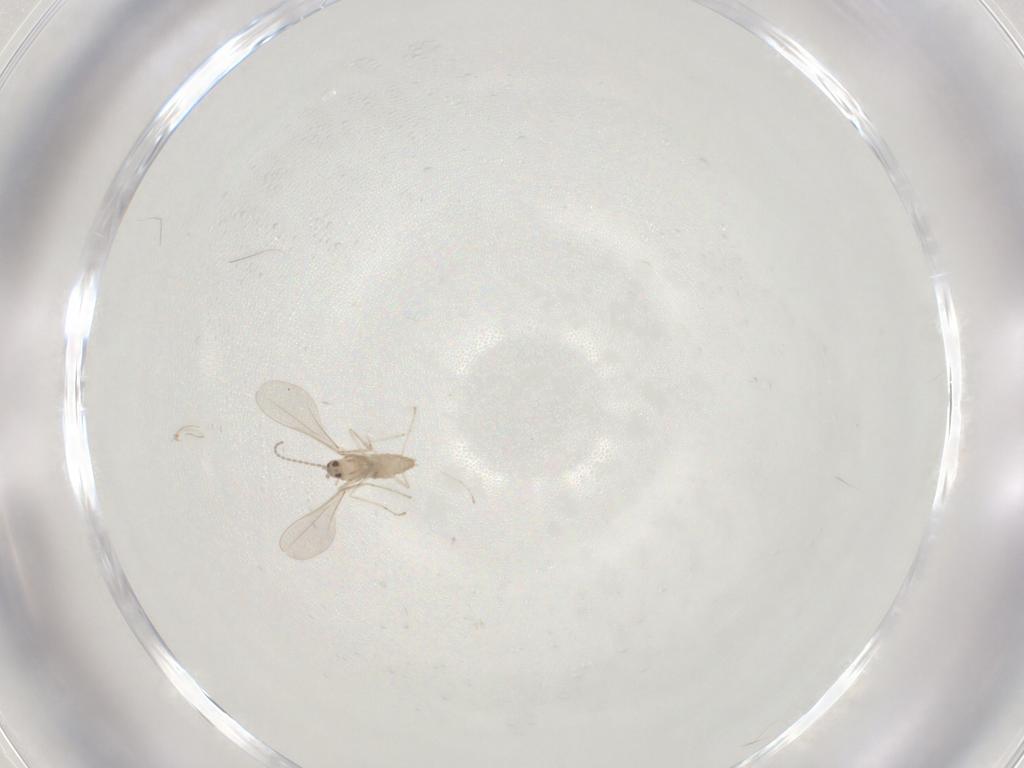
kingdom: Animalia
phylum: Arthropoda
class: Insecta
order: Diptera
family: Cecidomyiidae
